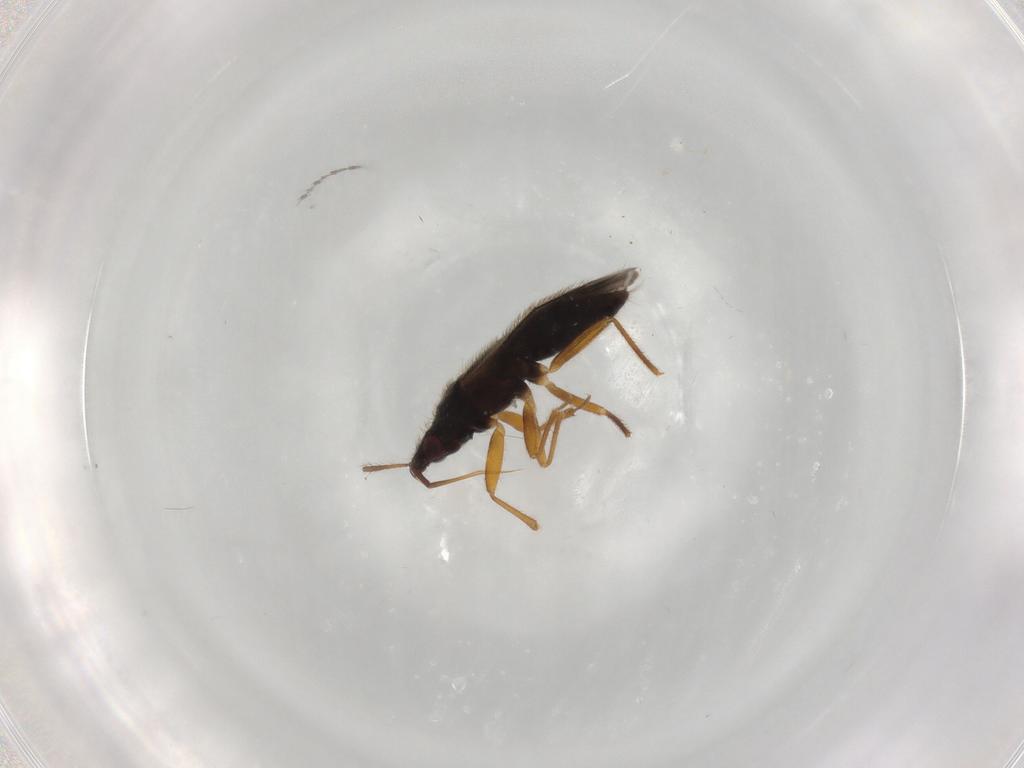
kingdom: Animalia
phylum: Arthropoda
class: Insecta
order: Hemiptera
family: Lasiochilidae
